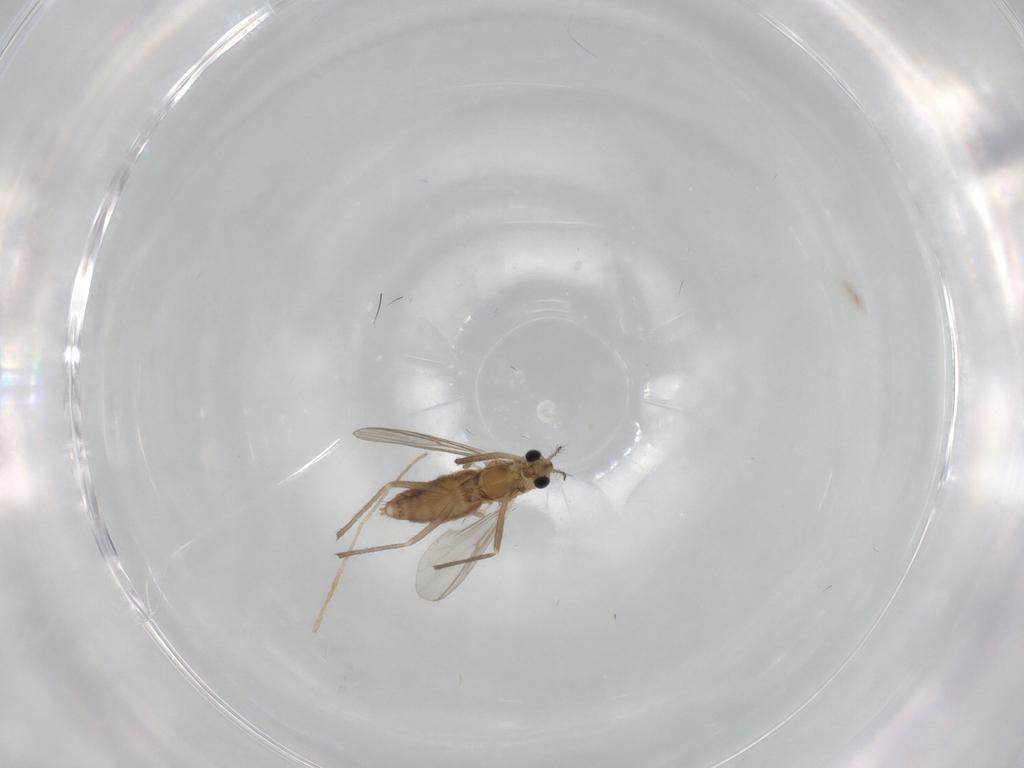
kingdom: Animalia
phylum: Arthropoda
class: Insecta
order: Diptera
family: Chironomidae
